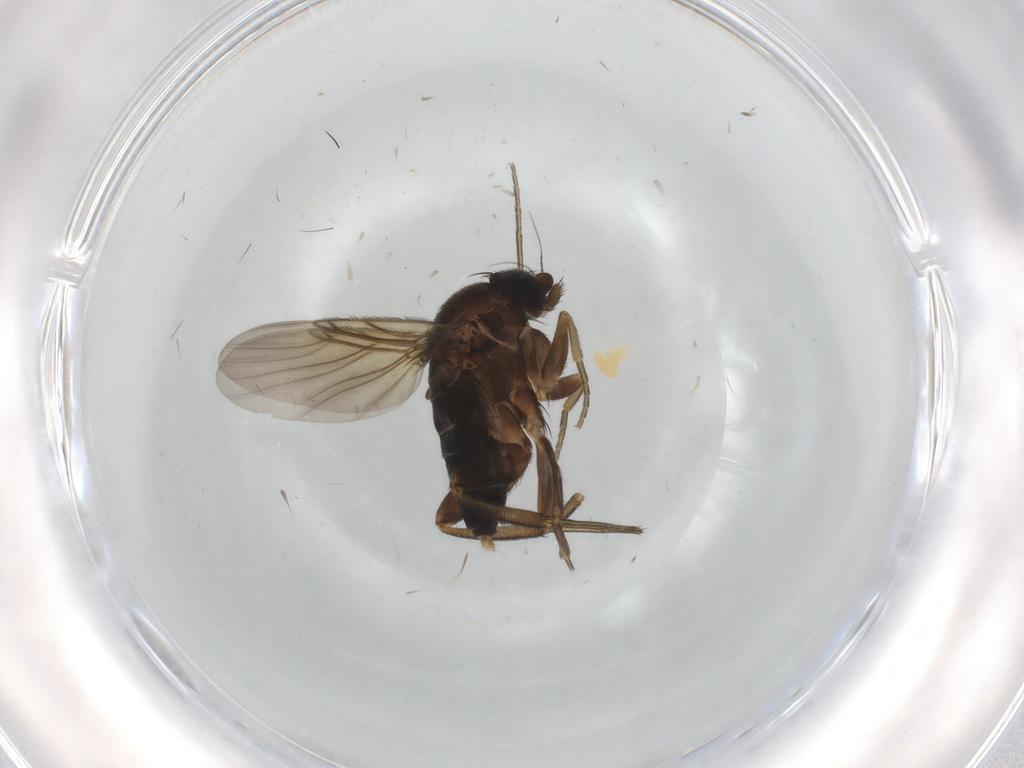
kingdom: Animalia
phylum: Arthropoda
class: Insecta
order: Diptera
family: Phoridae
